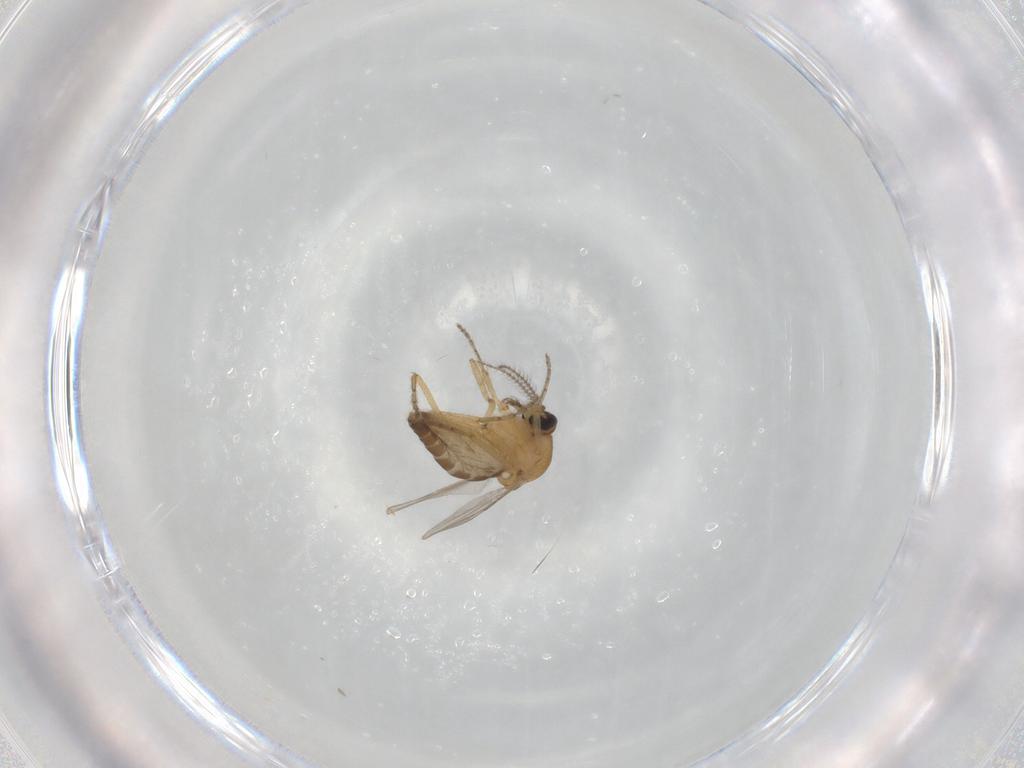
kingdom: Animalia
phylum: Arthropoda
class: Insecta
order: Diptera
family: Ceratopogonidae
